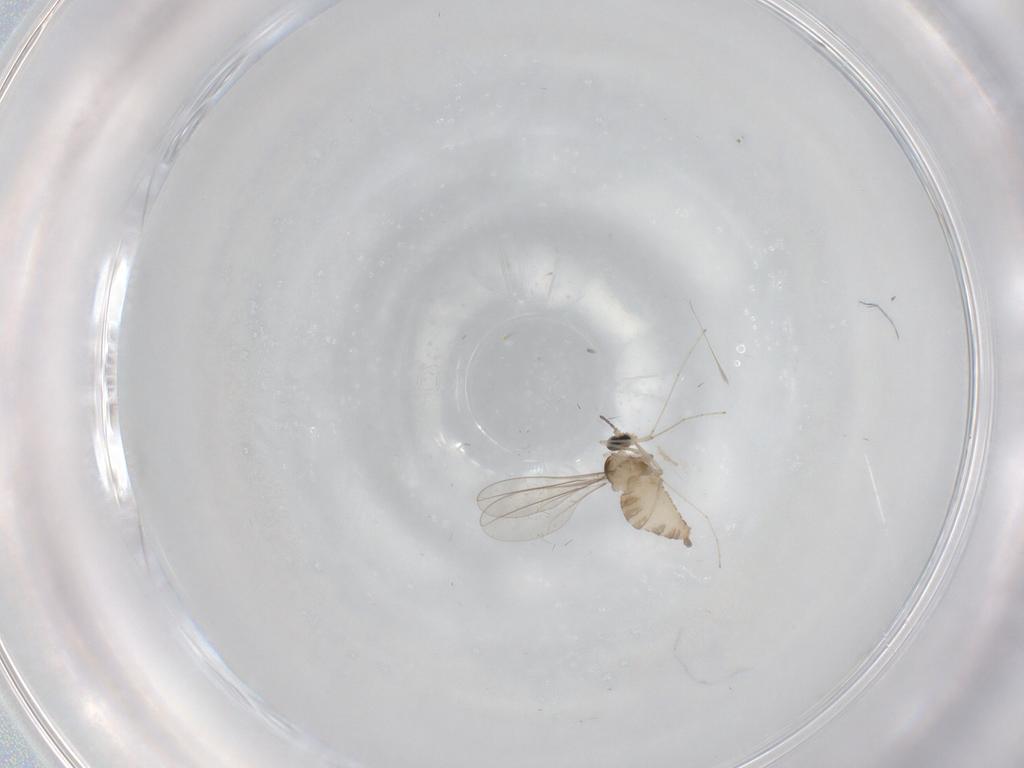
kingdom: Animalia
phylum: Arthropoda
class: Insecta
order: Diptera
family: Cecidomyiidae
